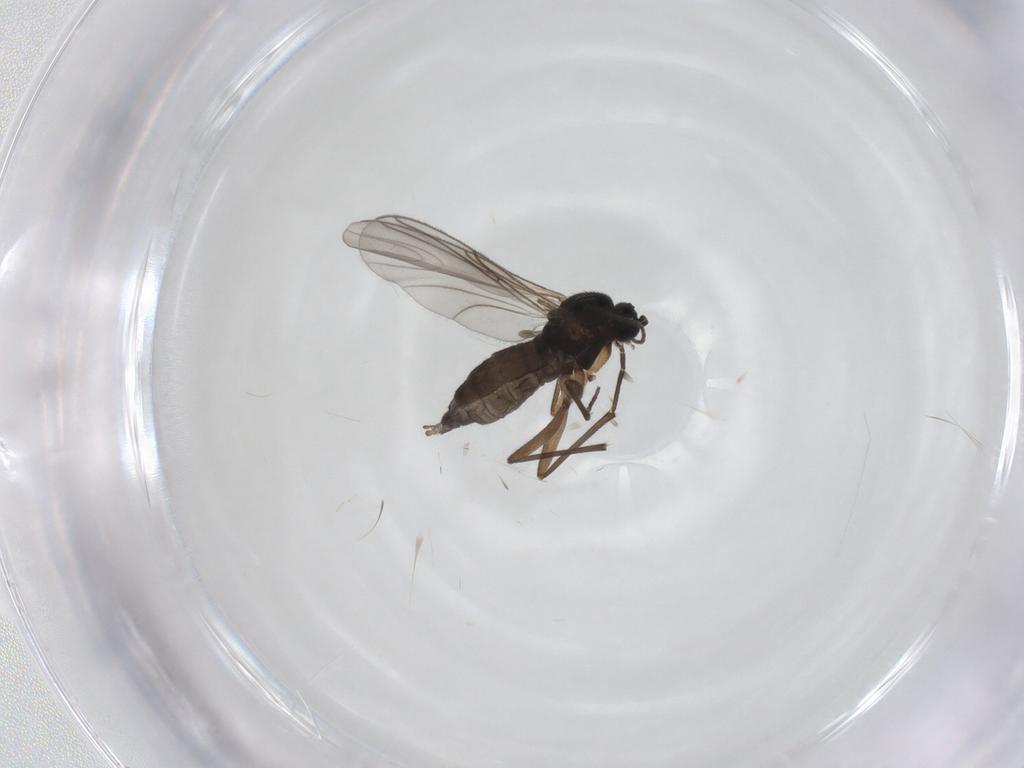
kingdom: Animalia
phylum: Arthropoda
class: Insecta
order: Diptera
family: Sciaridae
